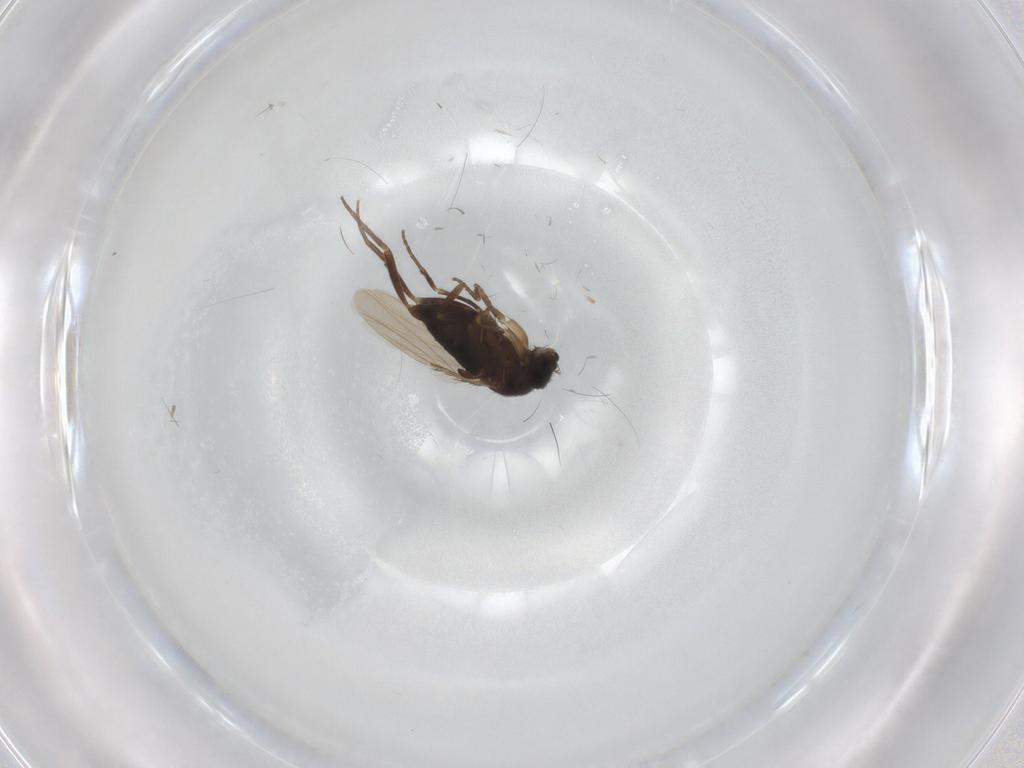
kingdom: Animalia
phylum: Arthropoda
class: Insecta
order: Diptera
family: Phoridae
